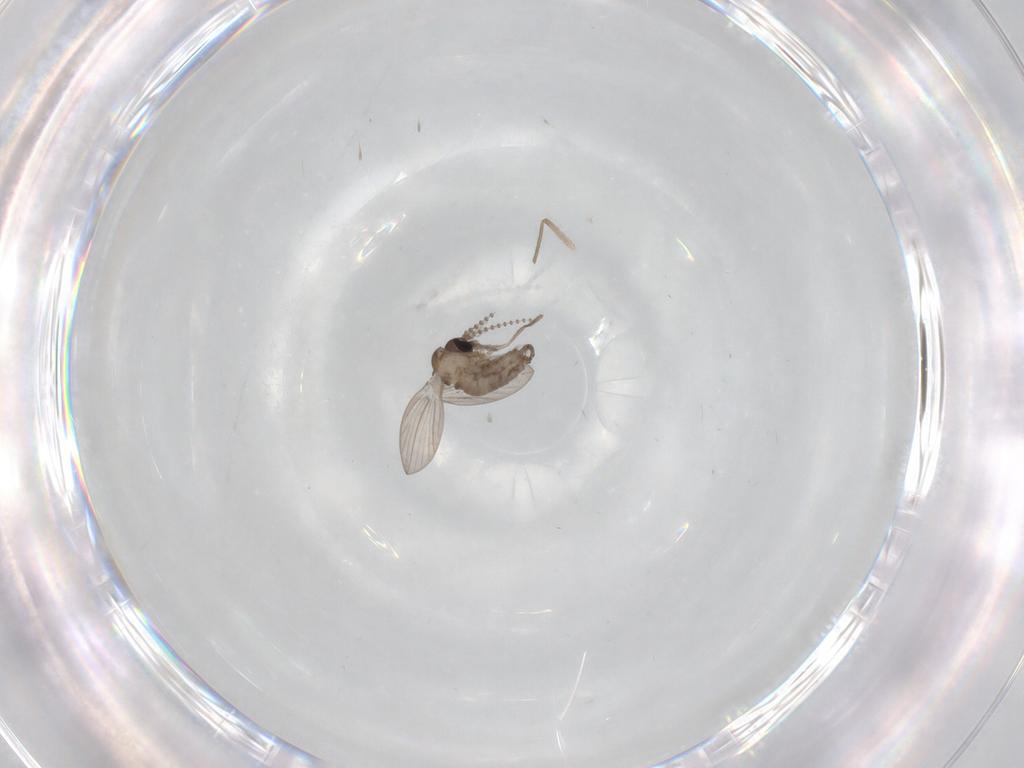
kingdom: Animalia
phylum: Arthropoda
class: Insecta
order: Diptera
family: Psychodidae
